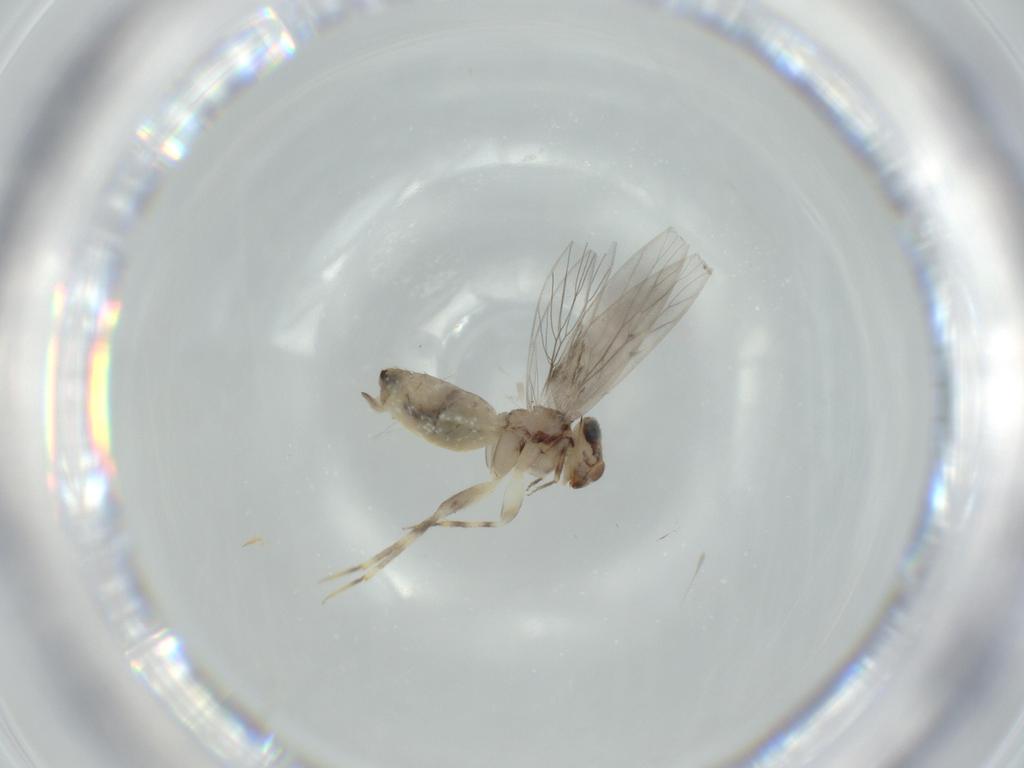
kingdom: Animalia
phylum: Arthropoda
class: Insecta
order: Psocodea
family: Lepidopsocidae
